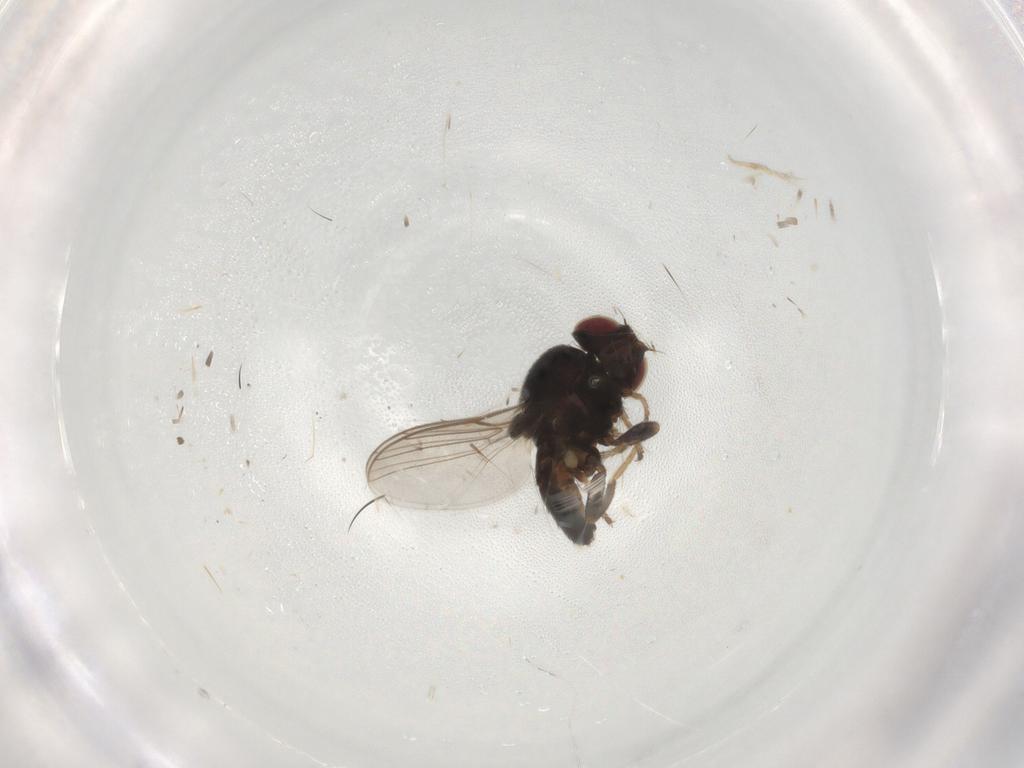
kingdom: Animalia
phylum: Arthropoda
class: Insecta
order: Diptera
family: Chloropidae
